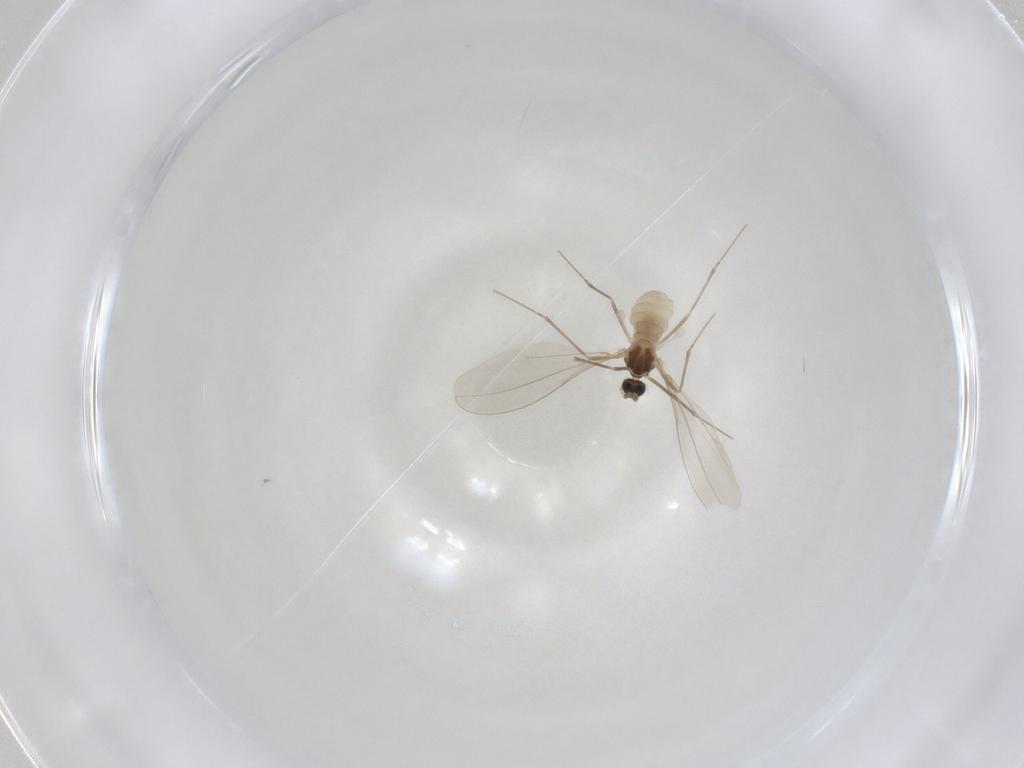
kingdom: Animalia
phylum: Arthropoda
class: Insecta
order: Diptera
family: Cecidomyiidae
